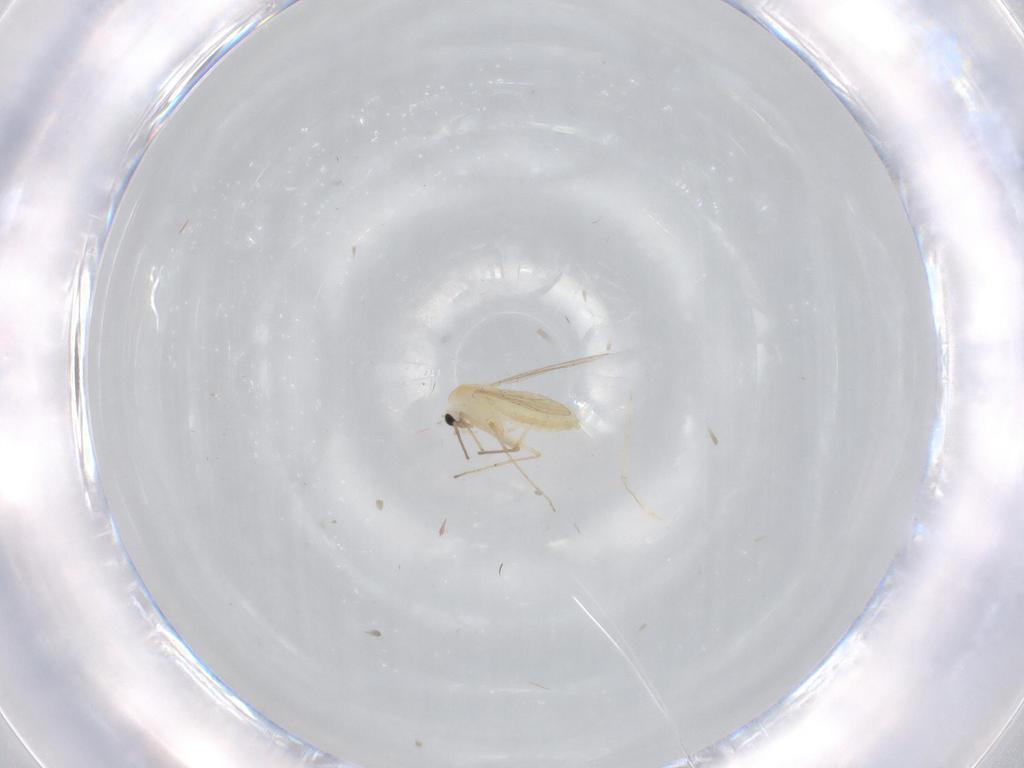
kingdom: Animalia
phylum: Arthropoda
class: Insecta
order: Diptera
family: Chironomidae
